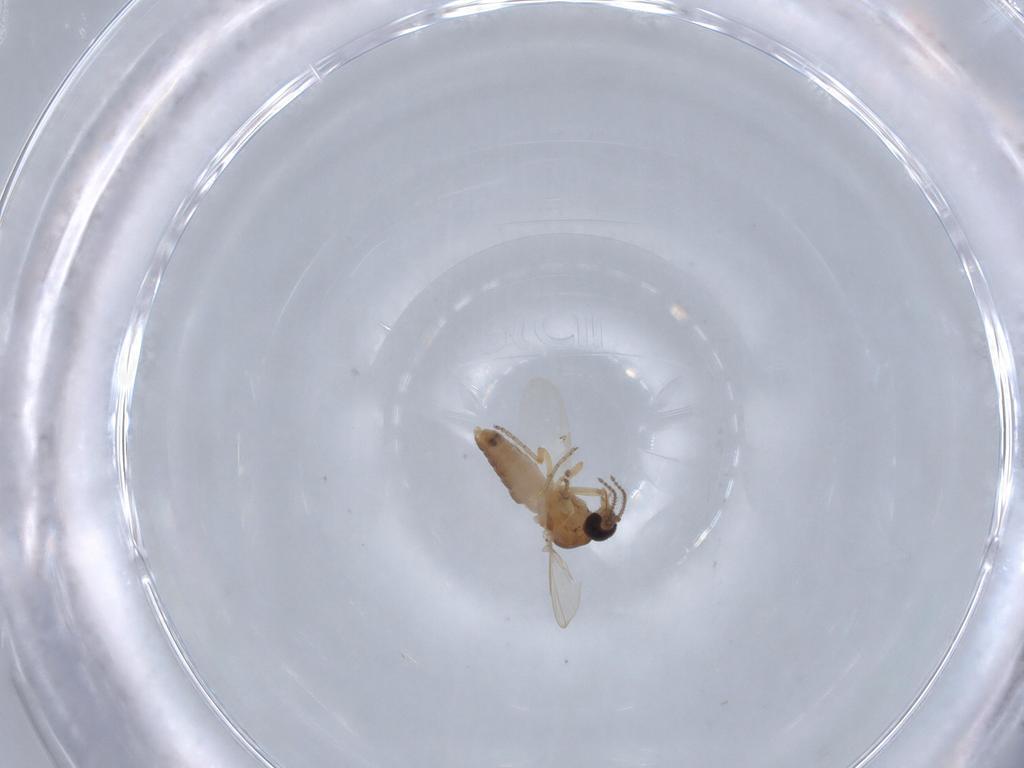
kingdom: Animalia
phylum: Arthropoda
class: Insecta
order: Diptera
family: Ceratopogonidae
